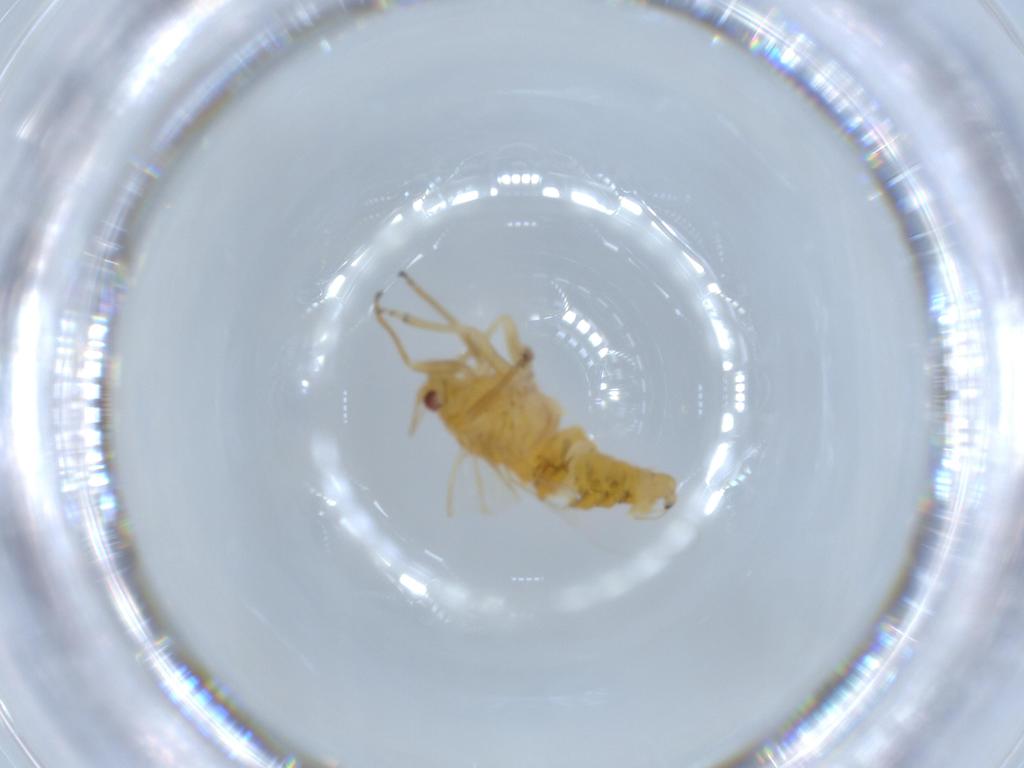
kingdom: Animalia
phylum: Arthropoda
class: Insecta
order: Hemiptera
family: Psyllidae
